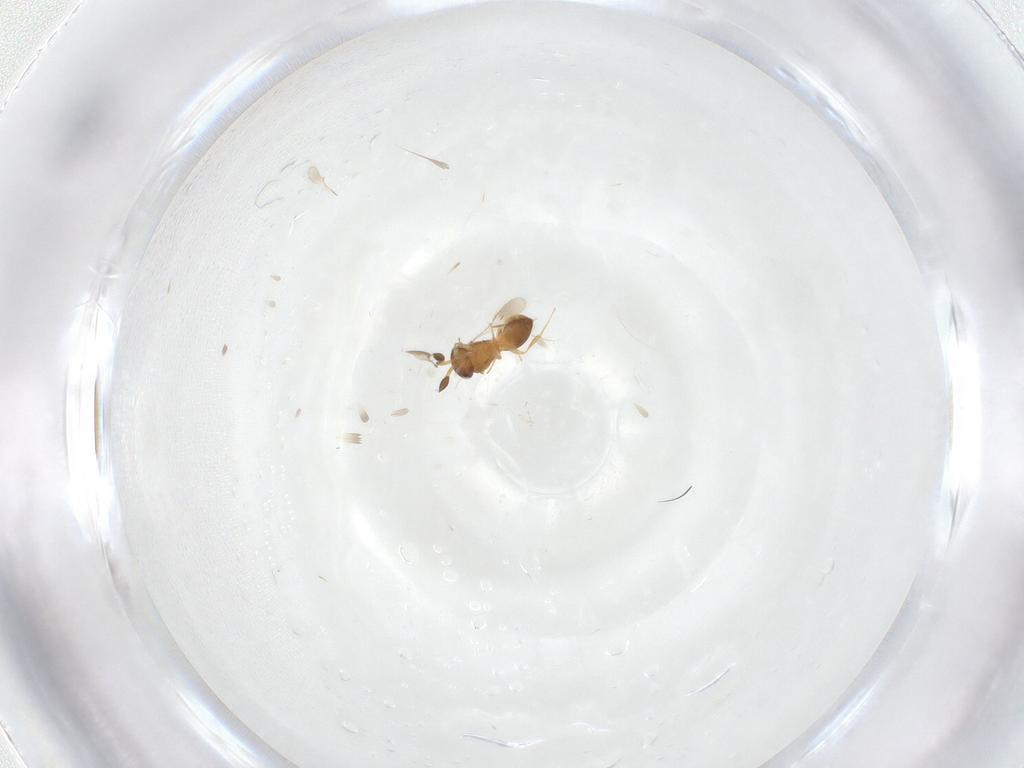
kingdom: Animalia
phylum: Arthropoda
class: Insecta
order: Hymenoptera
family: Scelionidae
